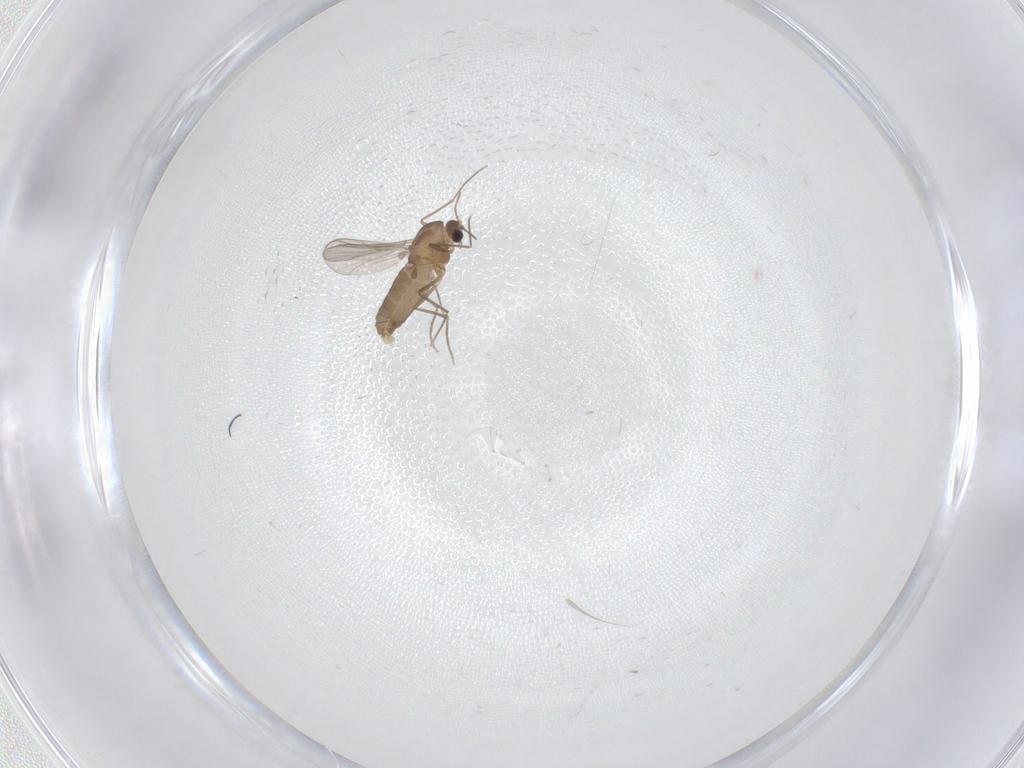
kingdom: Animalia
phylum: Arthropoda
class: Insecta
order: Diptera
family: Chironomidae
